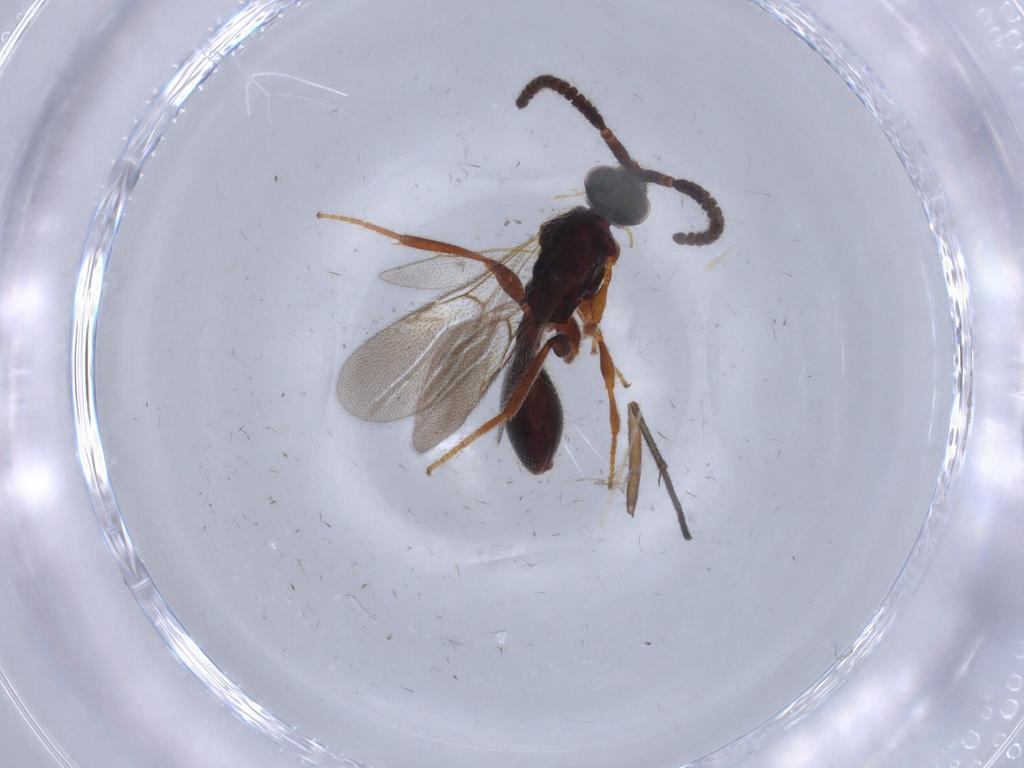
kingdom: Animalia
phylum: Arthropoda
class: Insecta
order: Hymenoptera
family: Diapriidae
